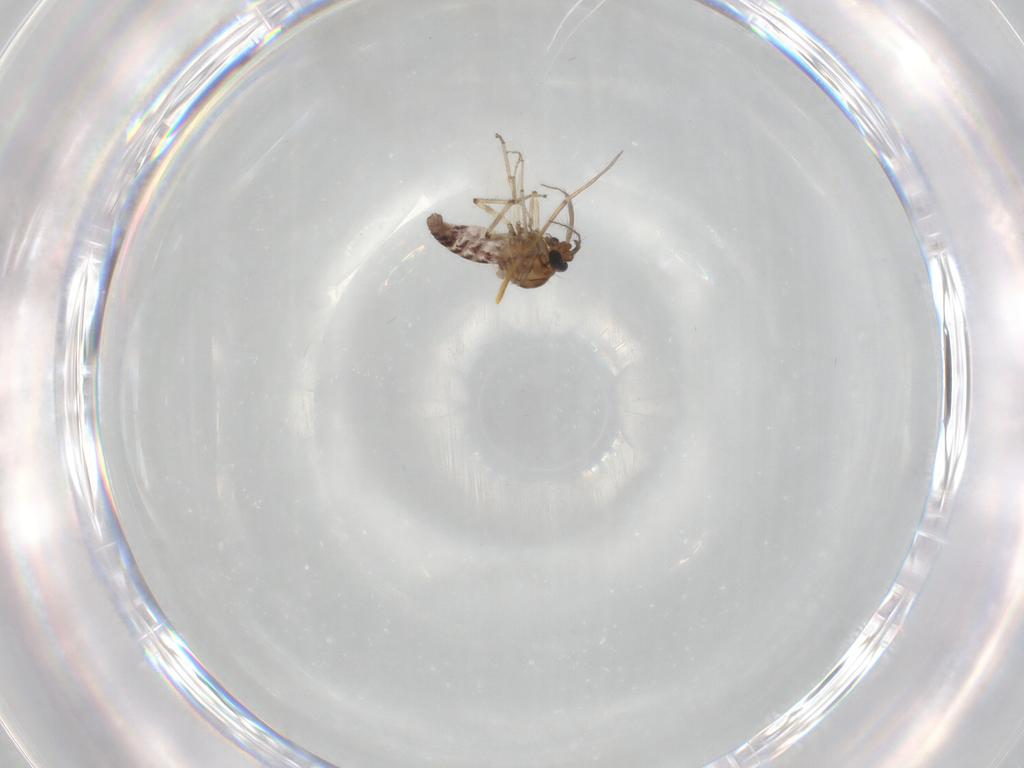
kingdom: Animalia
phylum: Arthropoda
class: Insecta
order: Diptera
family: Ceratopogonidae
